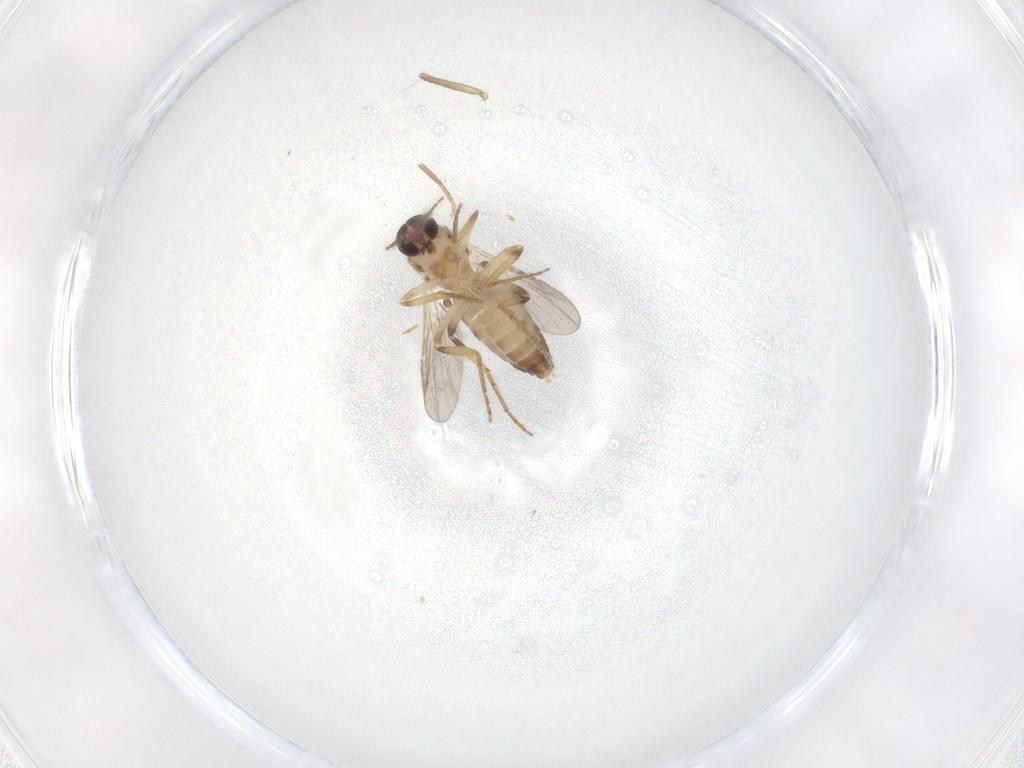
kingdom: Animalia
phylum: Arthropoda
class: Insecta
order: Diptera
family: Ceratopogonidae
